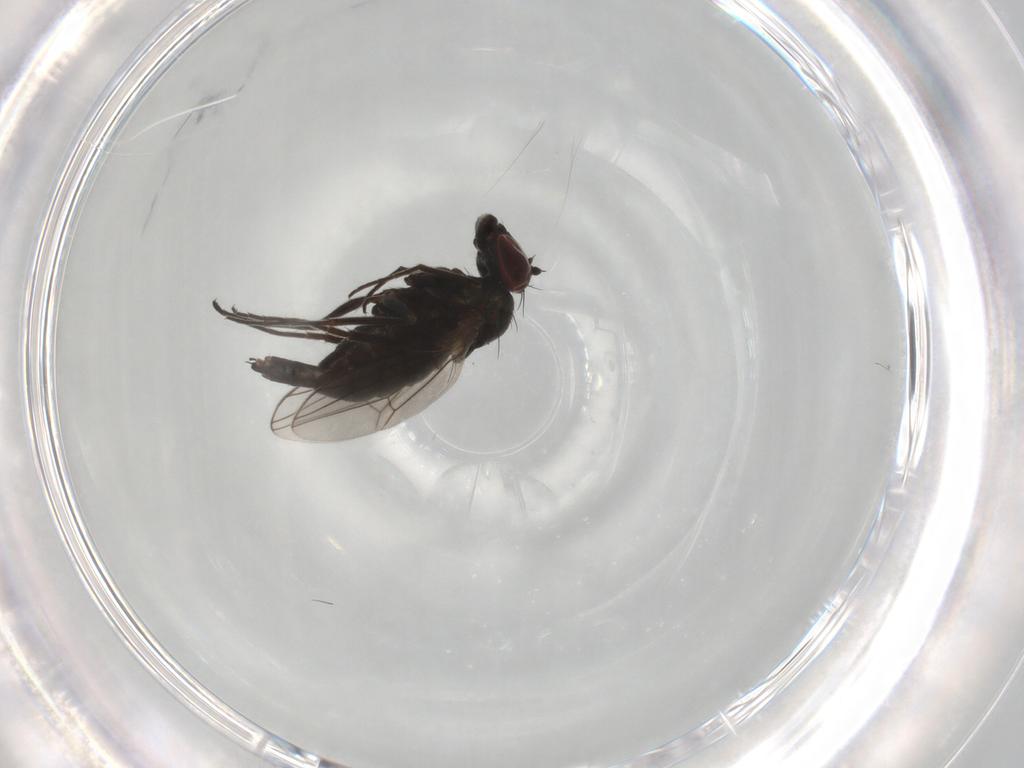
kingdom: Animalia
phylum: Arthropoda
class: Insecta
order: Diptera
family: Dolichopodidae
